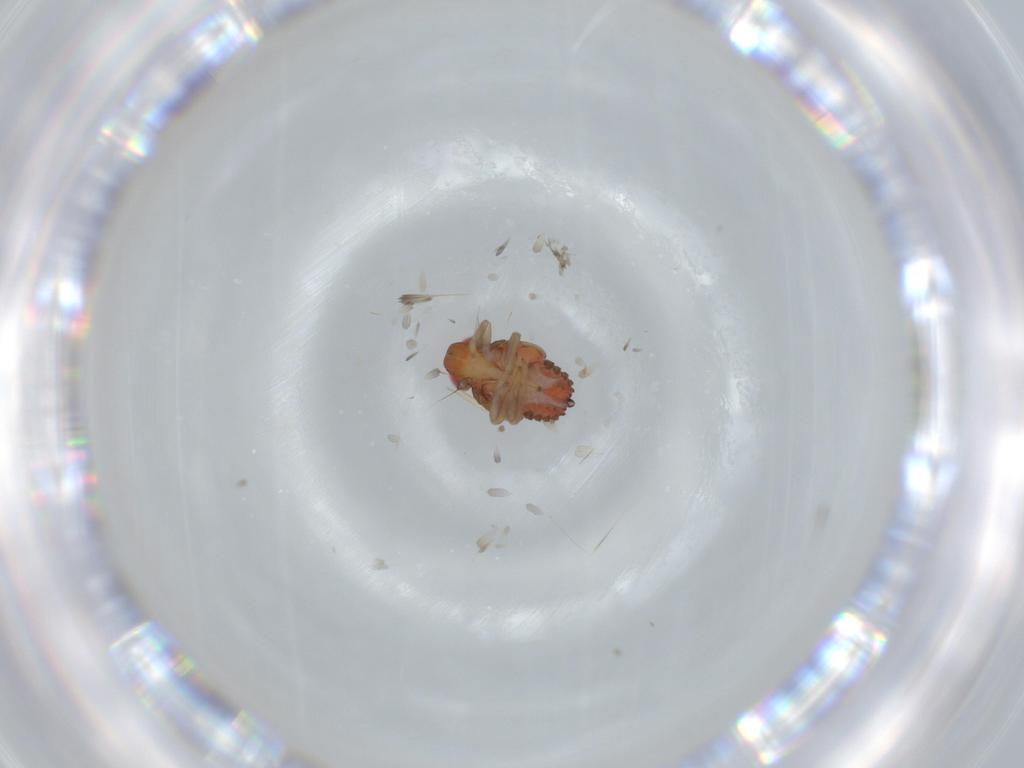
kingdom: Animalia
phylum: Arthropoda
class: Insecta
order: Hemiptera
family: Issidae
